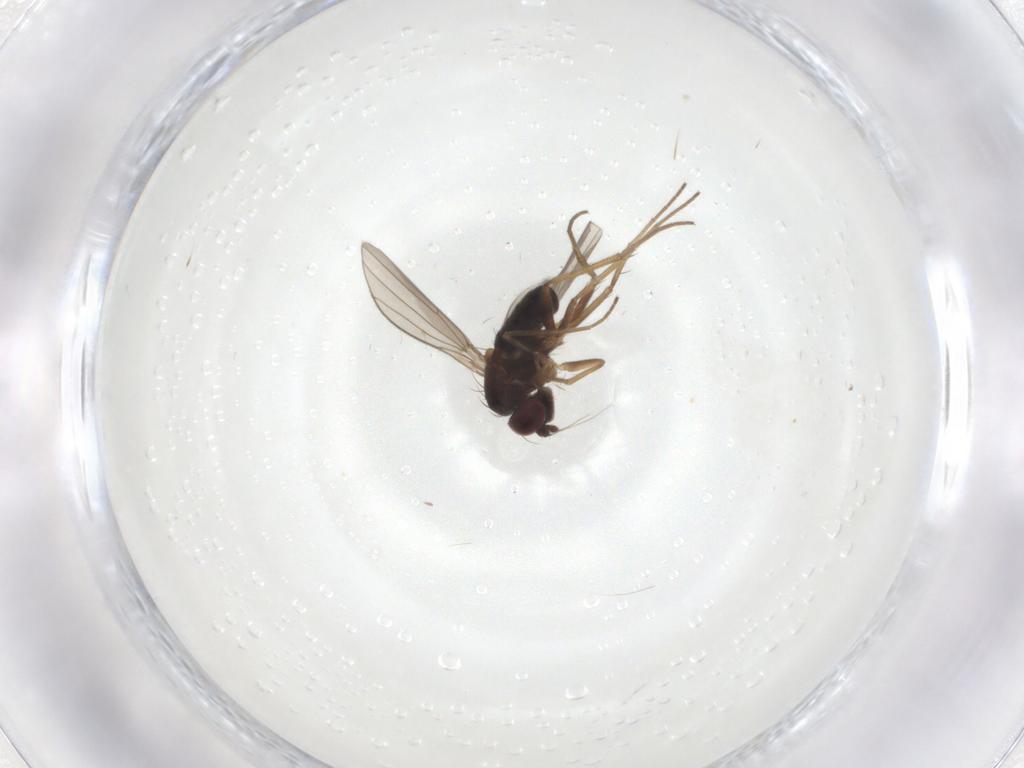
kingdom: Animalia
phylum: Arthropoda
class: Insecta
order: Diptera
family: Dolichopodidae
